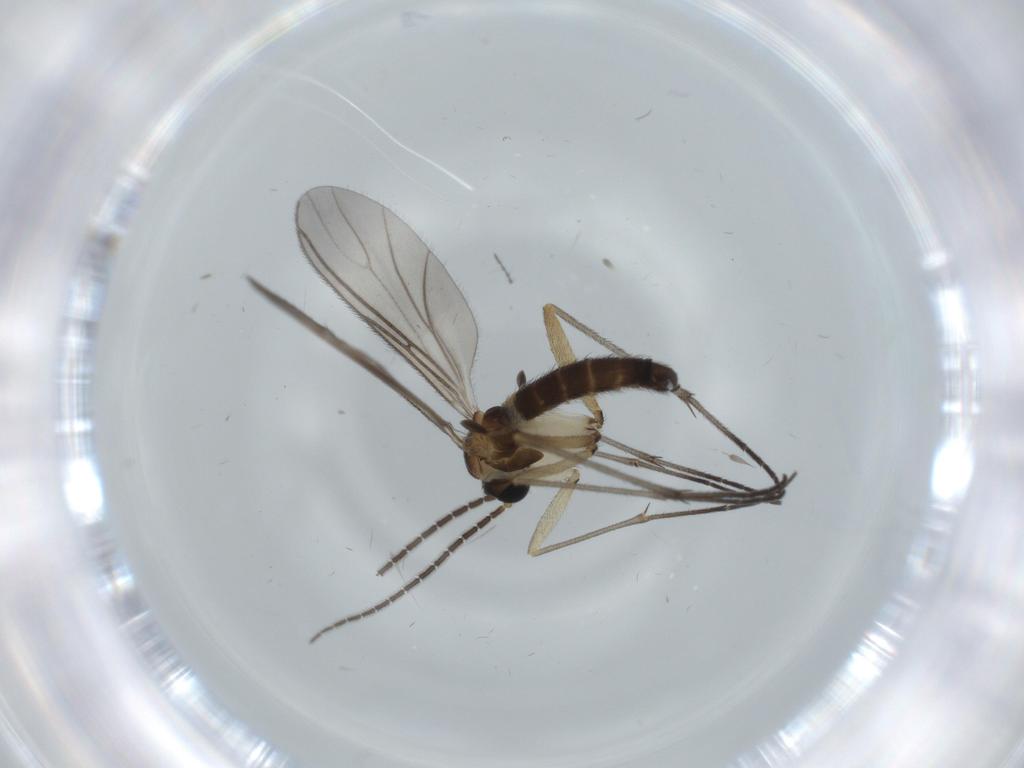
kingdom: Animalia
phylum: Arthropoda
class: Insecta
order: Diptera
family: Sciaridae
